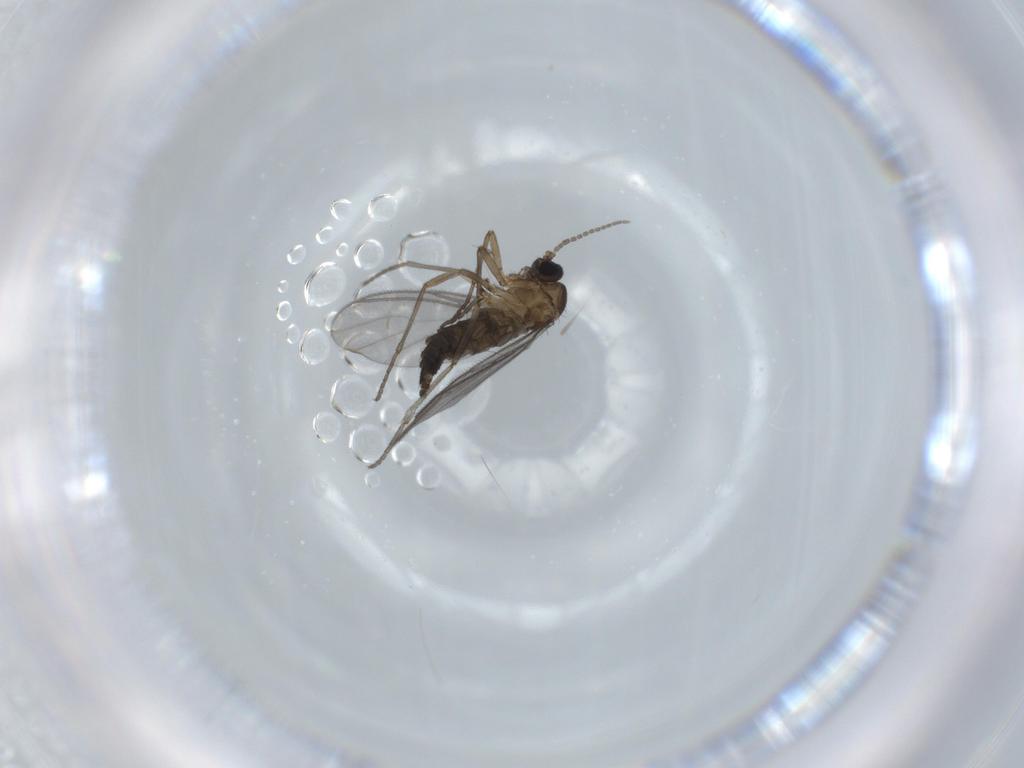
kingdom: Animalia
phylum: Arthropoda
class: Insecta
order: Diptera
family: Sciaridae
